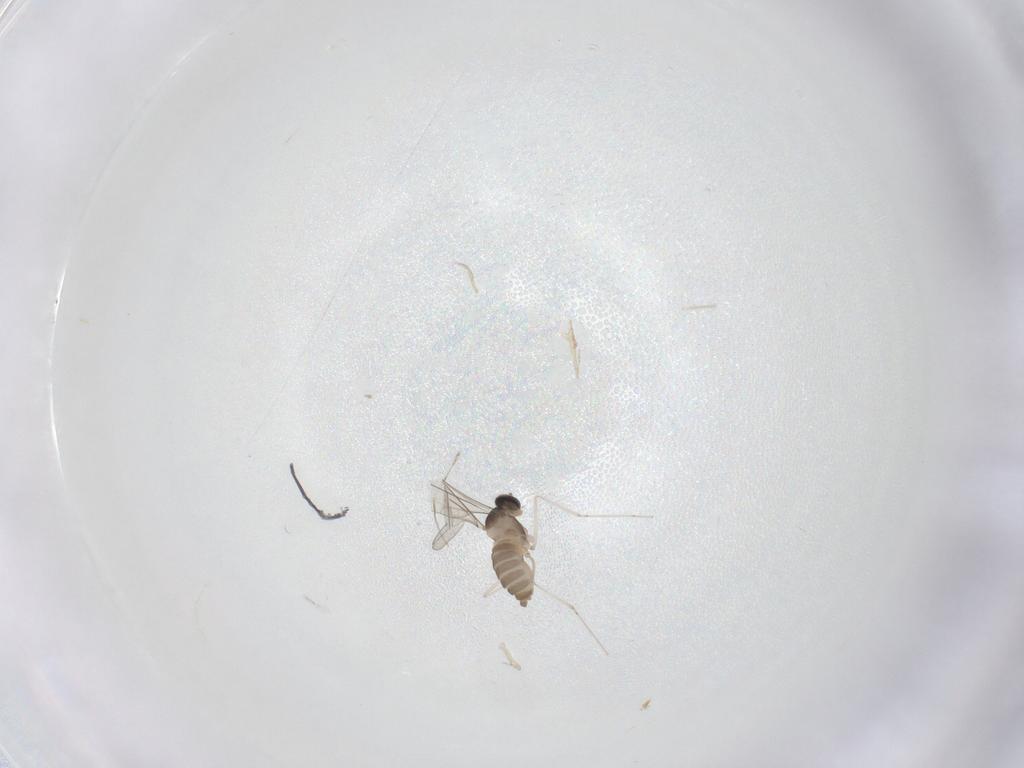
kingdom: Animalia
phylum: Arthropoda
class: Insecta
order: Diptera
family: Cecidomyiidae
